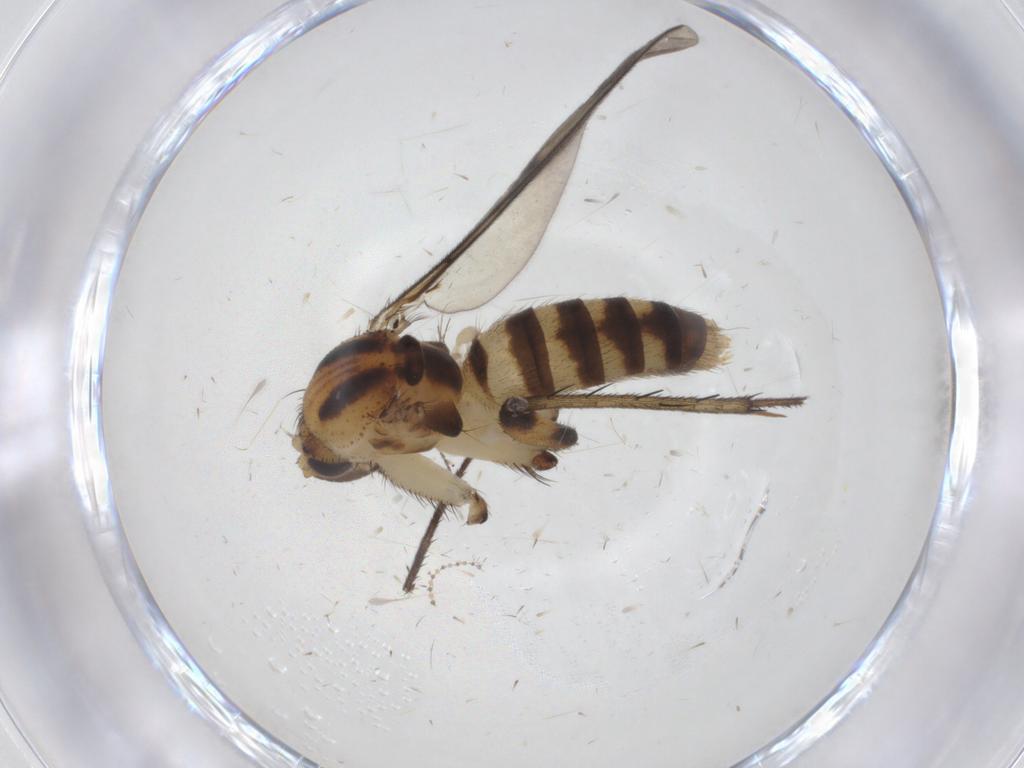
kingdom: Animalia
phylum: Arthropoda
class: Insecta
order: Diptera
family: Mycetophilidae
